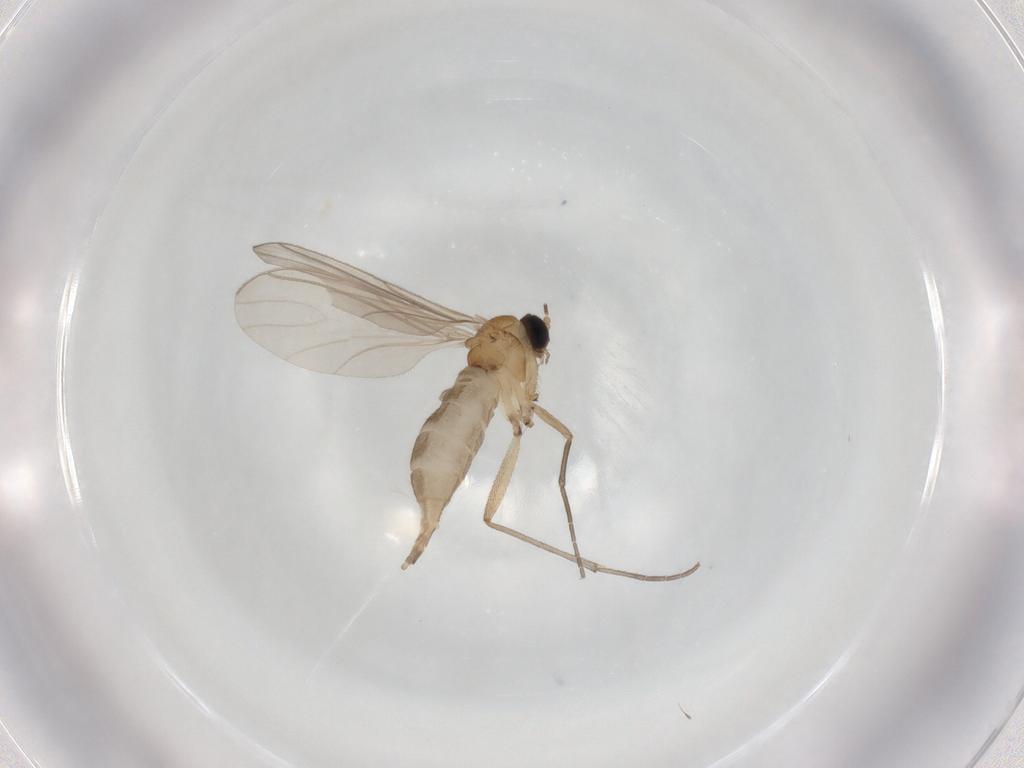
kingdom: Animalia
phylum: Arthropoda
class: Insecta
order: Diptera
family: Sciaridae
